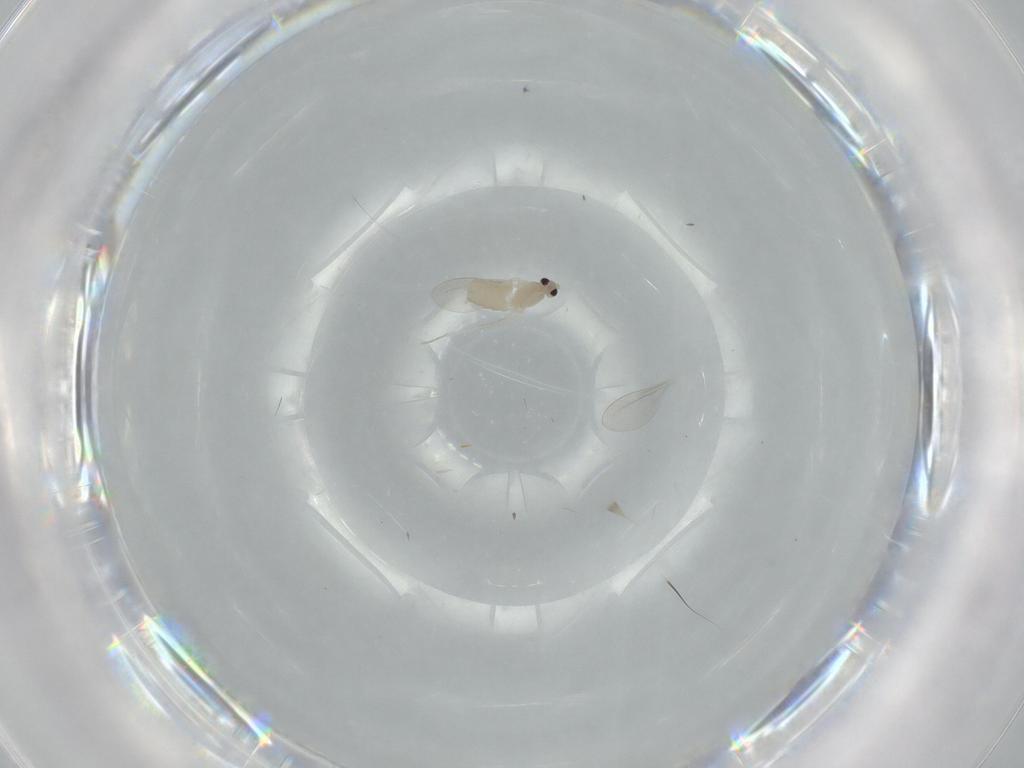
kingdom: Animalia
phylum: Arthropoda
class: Insecta
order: Diptera
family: Cecidomyiidae
